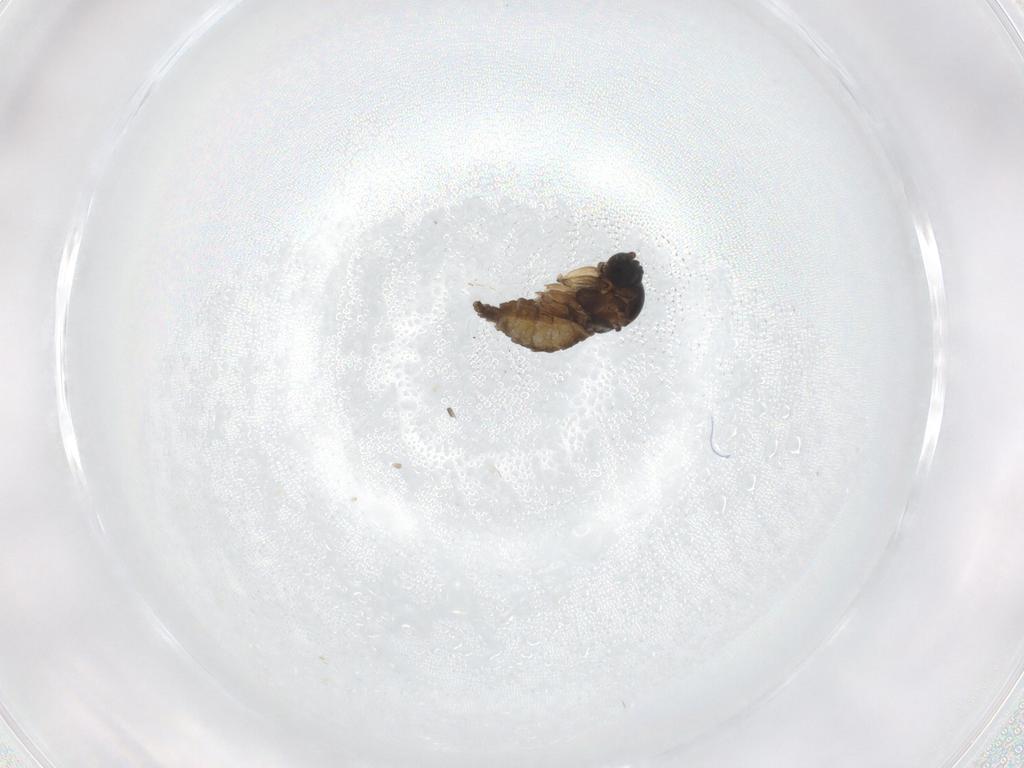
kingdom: Animalia
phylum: Arthropoda
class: Insecta
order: Diptera
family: Sciaridae
